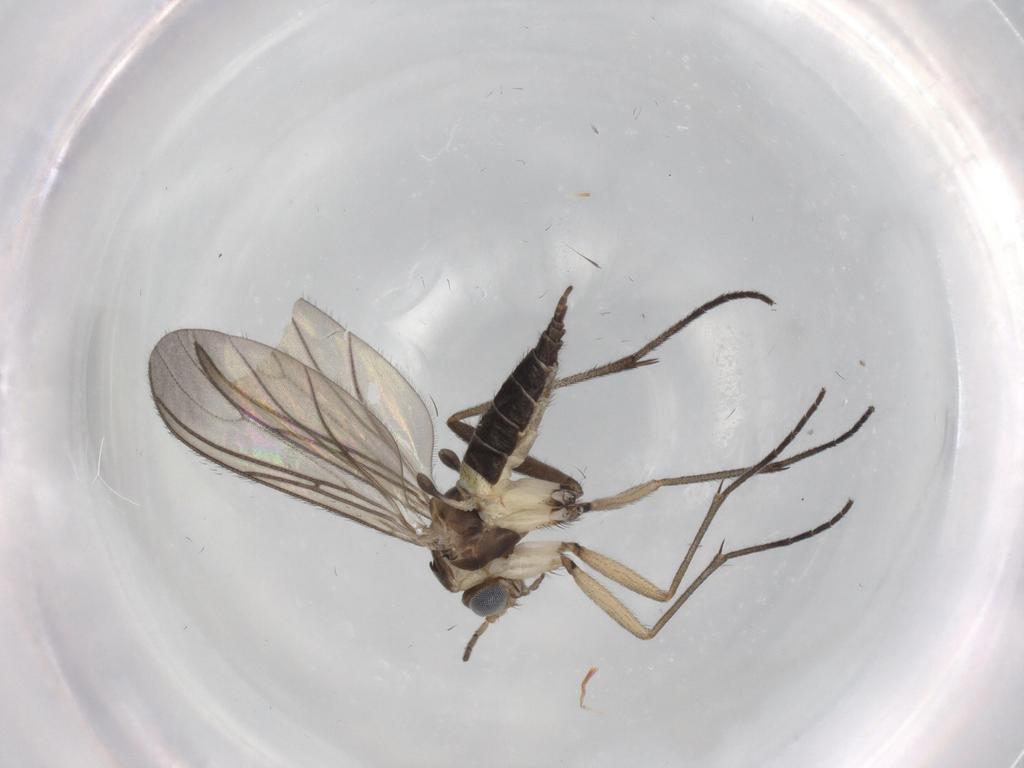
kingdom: Animalia
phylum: Arthropoda
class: Insecta
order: Diptera
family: Sciaridae
